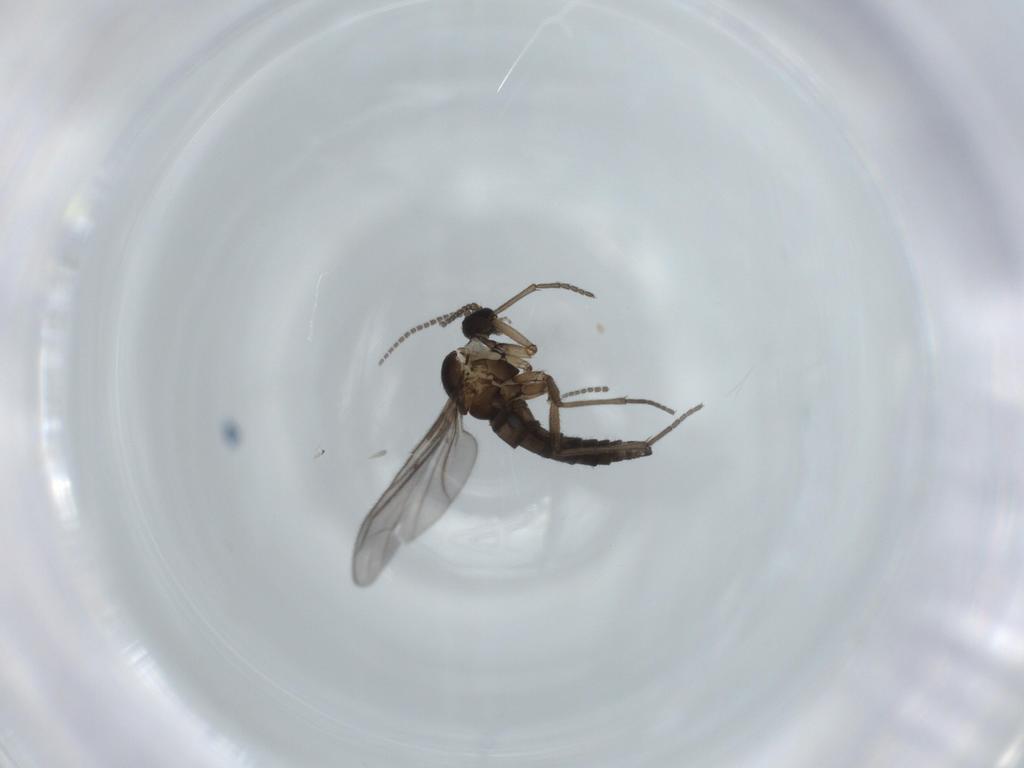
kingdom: Animalia
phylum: Arthropoda
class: Insecta
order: Diptera
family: Sciaridae
